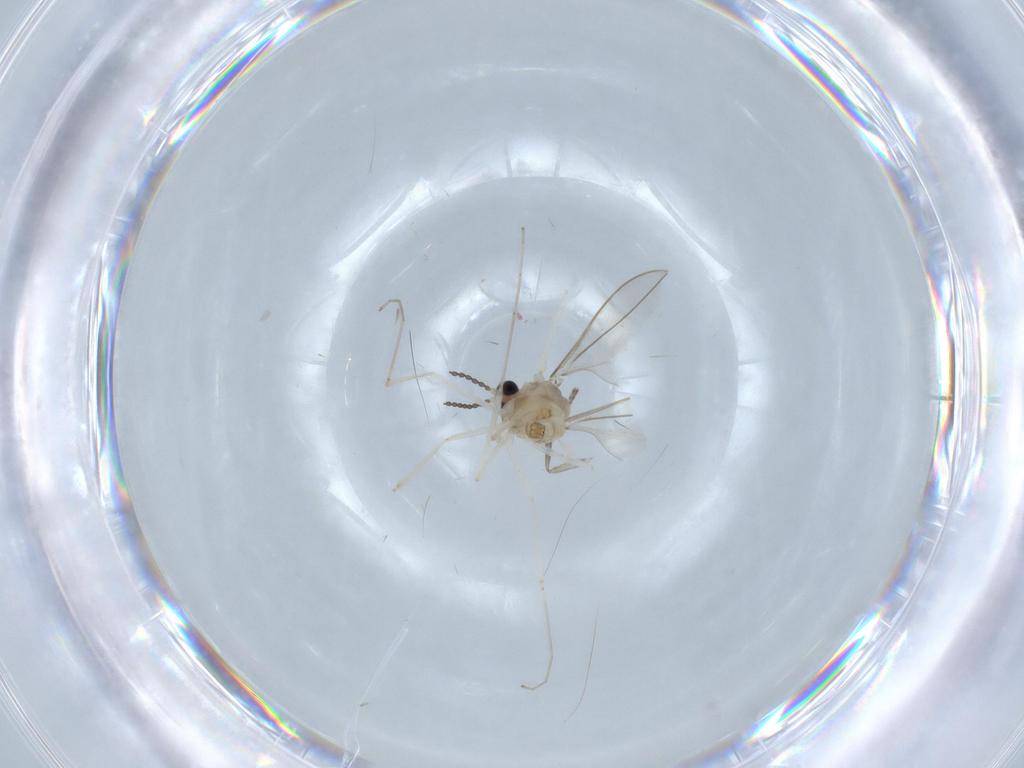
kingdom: Animalia
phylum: Arthropoda
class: Insecta
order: Diptera
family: Cecidomyiidae
